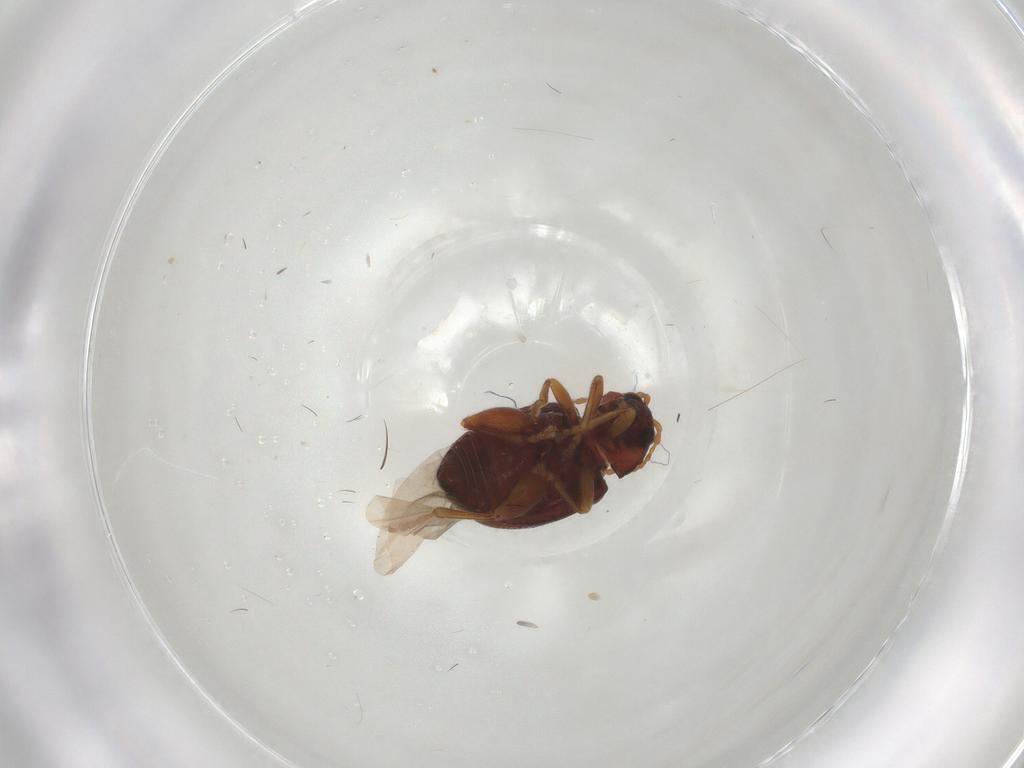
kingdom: Animalia
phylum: Arthropoda
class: Insecta
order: Coleoptera
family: Chrysomelidae
